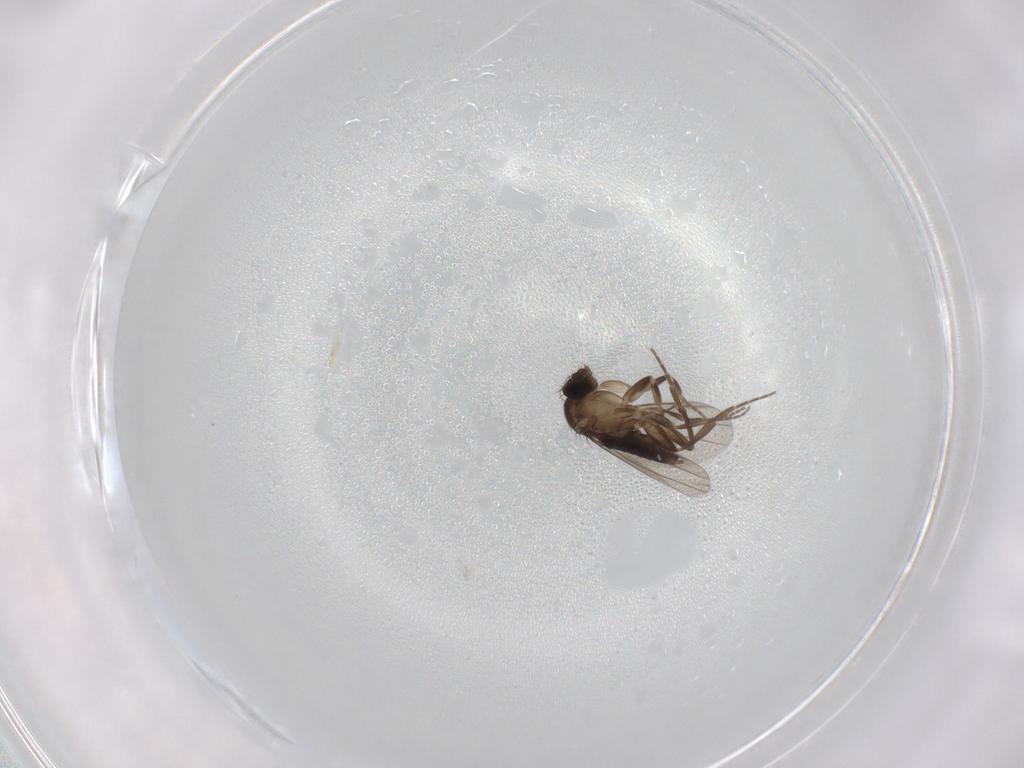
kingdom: Animalia
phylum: Arthropoda
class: Insecta
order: Diptera
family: Phoridae
